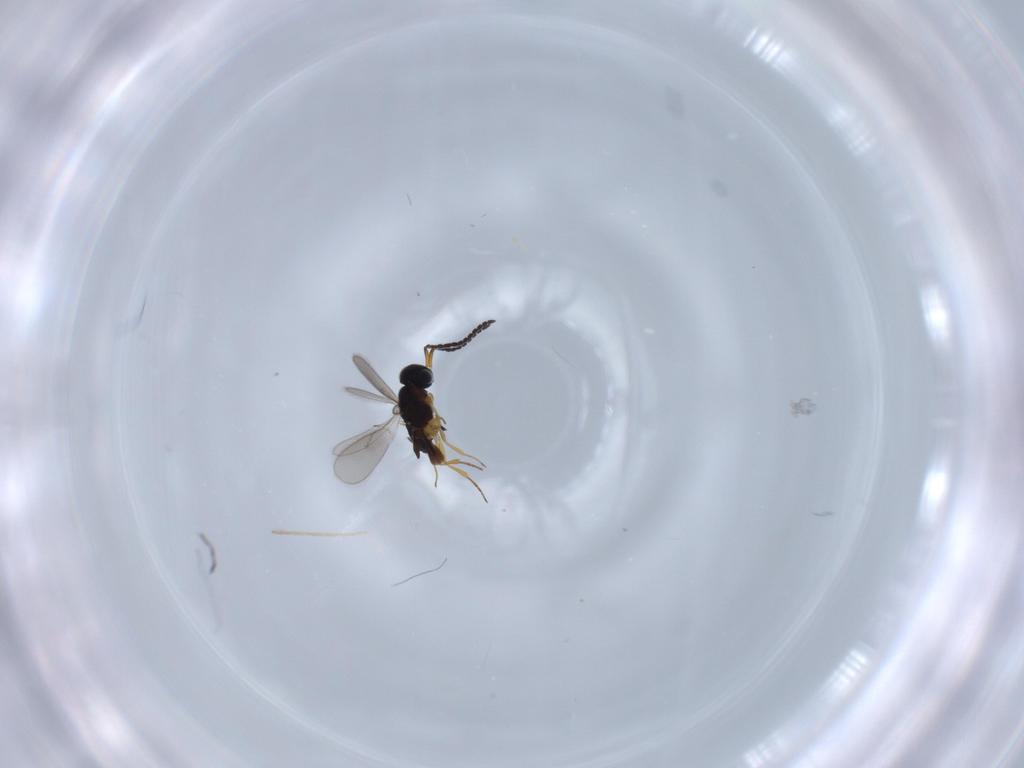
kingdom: Animalia
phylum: Arthropoda
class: Insecta
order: Hymenoptera
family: Scelionidae
